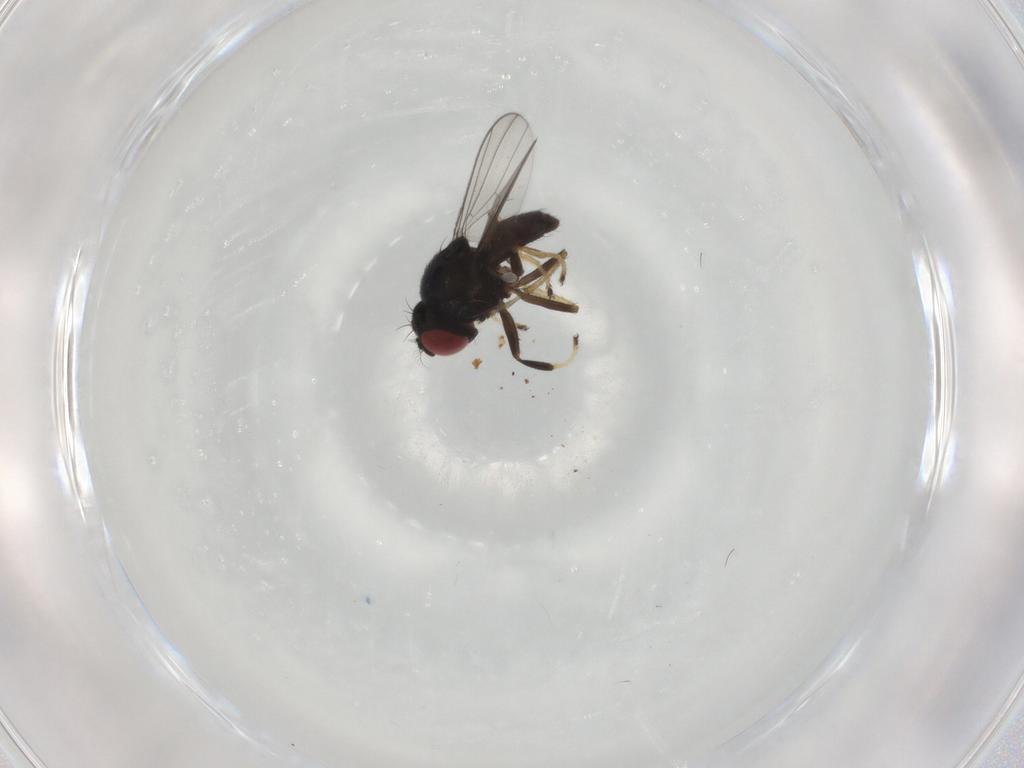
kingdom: Animalia
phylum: Arthropoda
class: Insecta
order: Diptera
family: Ephydridae
